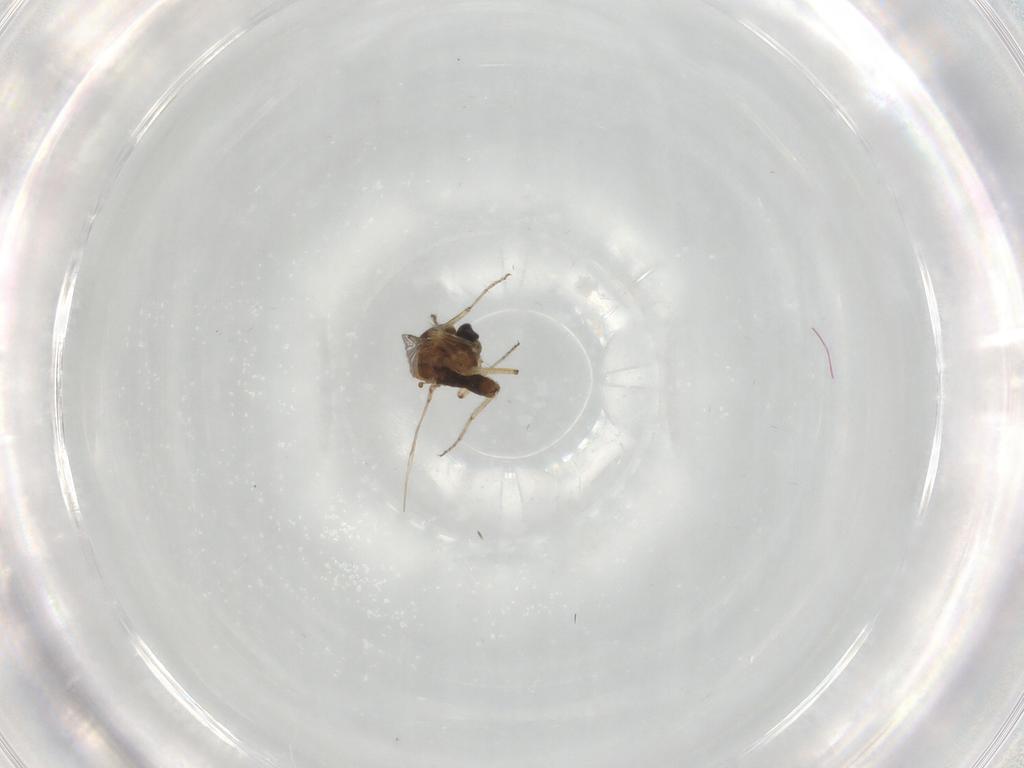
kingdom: Animalia
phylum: Arthropoda
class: Insecta
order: Diptera
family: Ceratopogonidae
